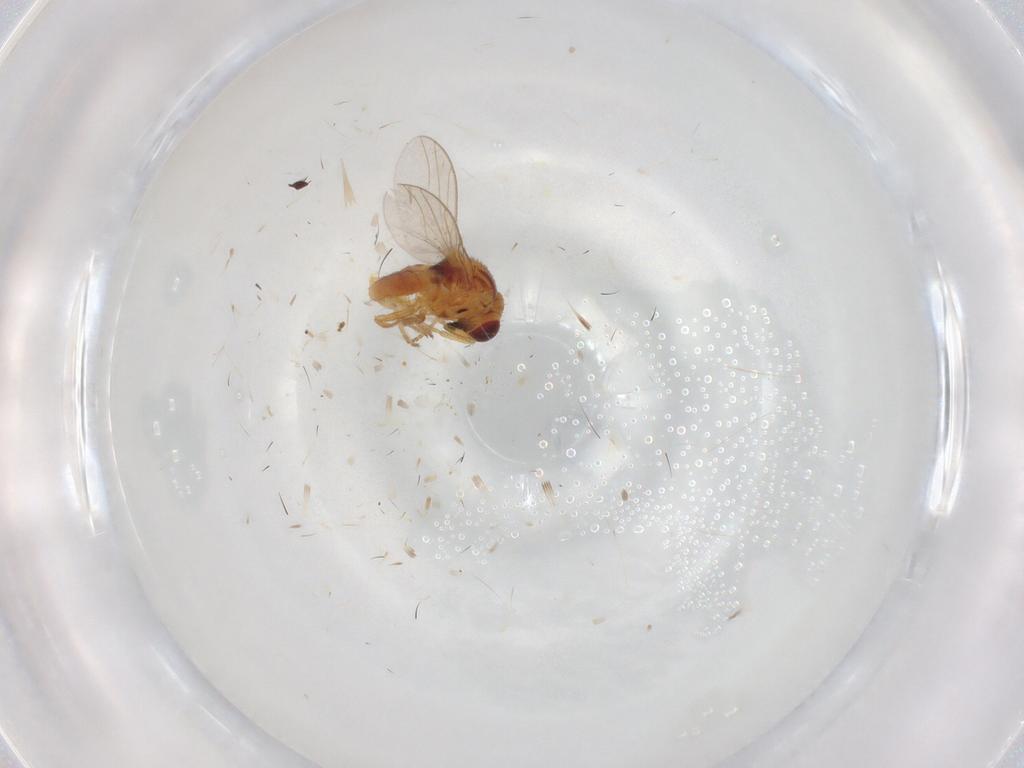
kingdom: Animalia
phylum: Arthropoda
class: Insecta
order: Diptera
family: Chloropidae
